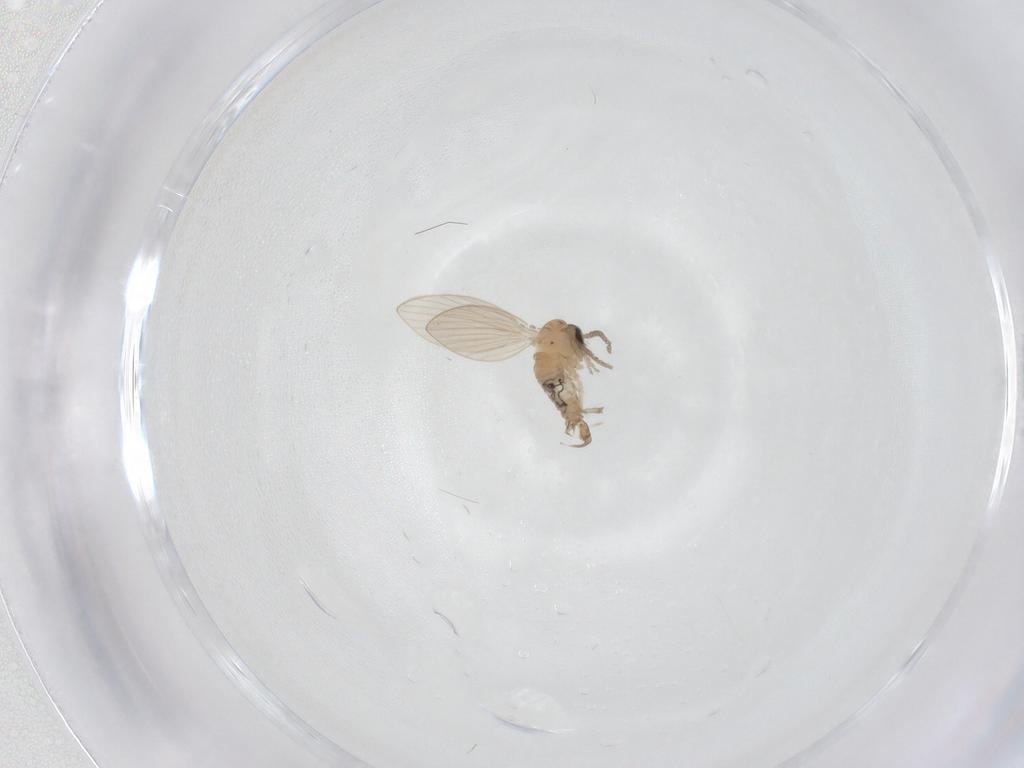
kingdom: Animalia
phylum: Arthropoda
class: Insecta
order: Diptera
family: Psychodidae
